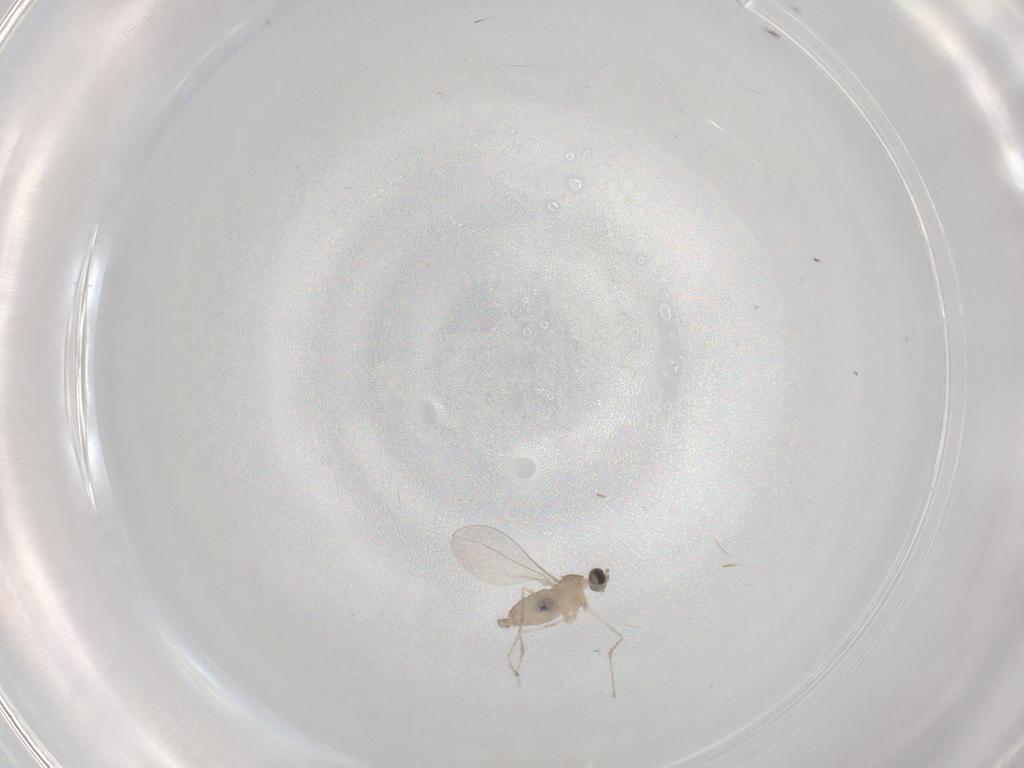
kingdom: Animalia
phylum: Arthropoda
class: Insecta
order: Diptera
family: Cecidomyiidae
